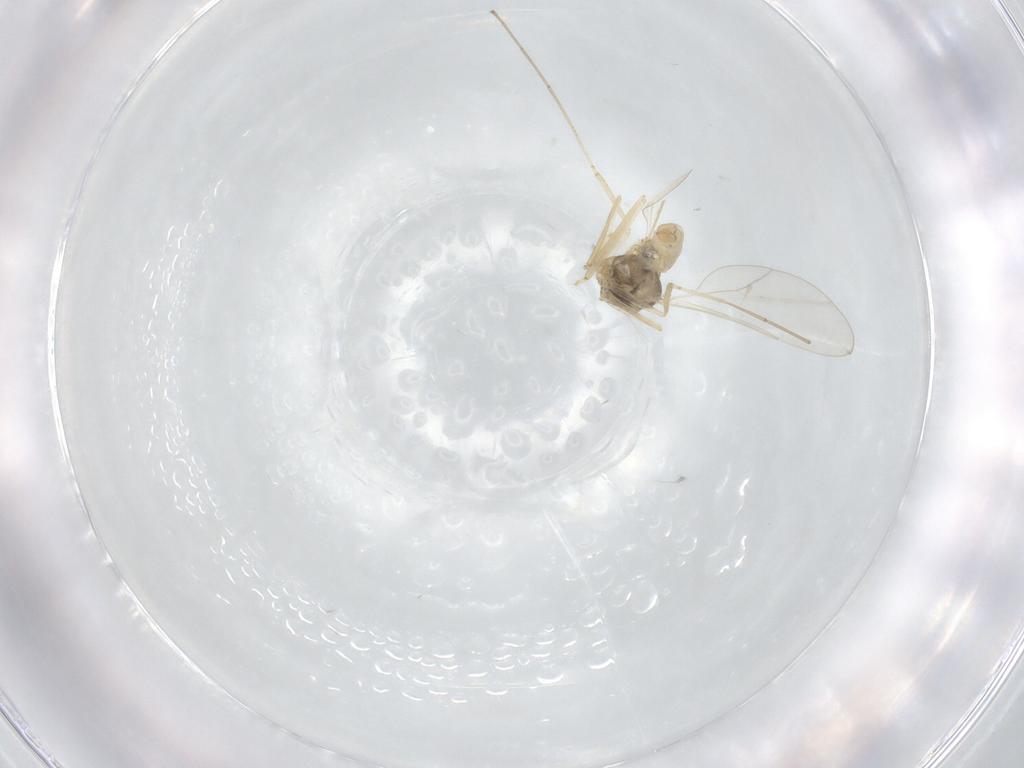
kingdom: Animalia
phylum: Arthropoda
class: Insecta
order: Diptera
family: Cecidomyiidae
